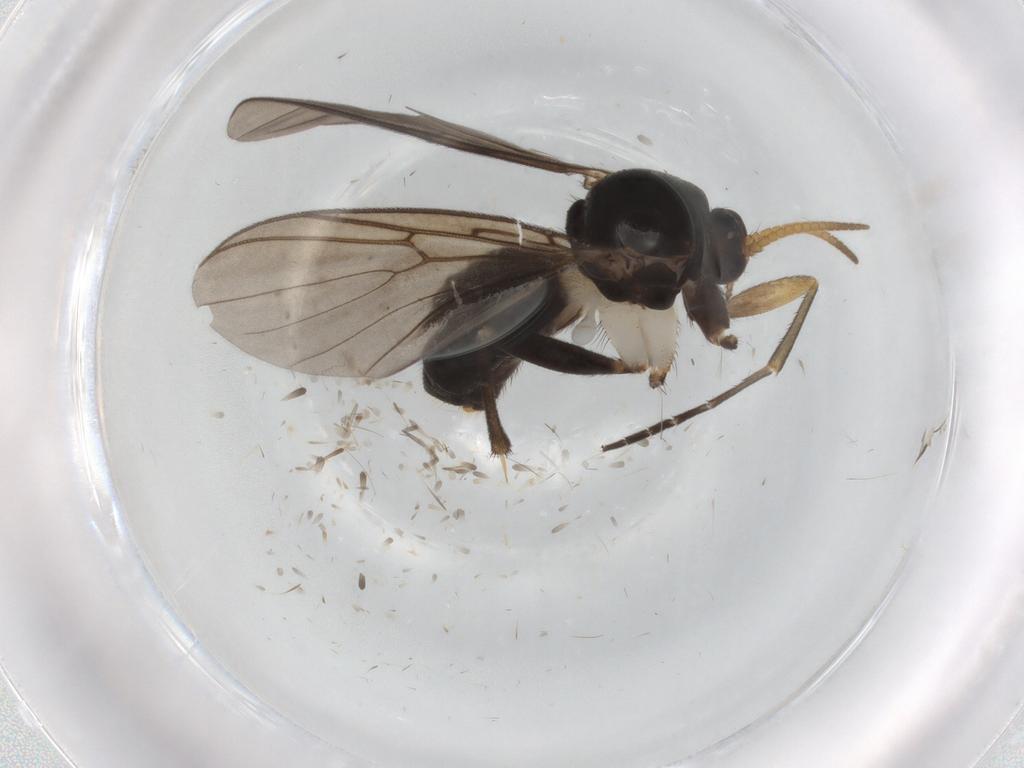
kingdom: Animalia
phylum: Arthropoda
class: Insecta
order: Diptera
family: Mycetophilidae
